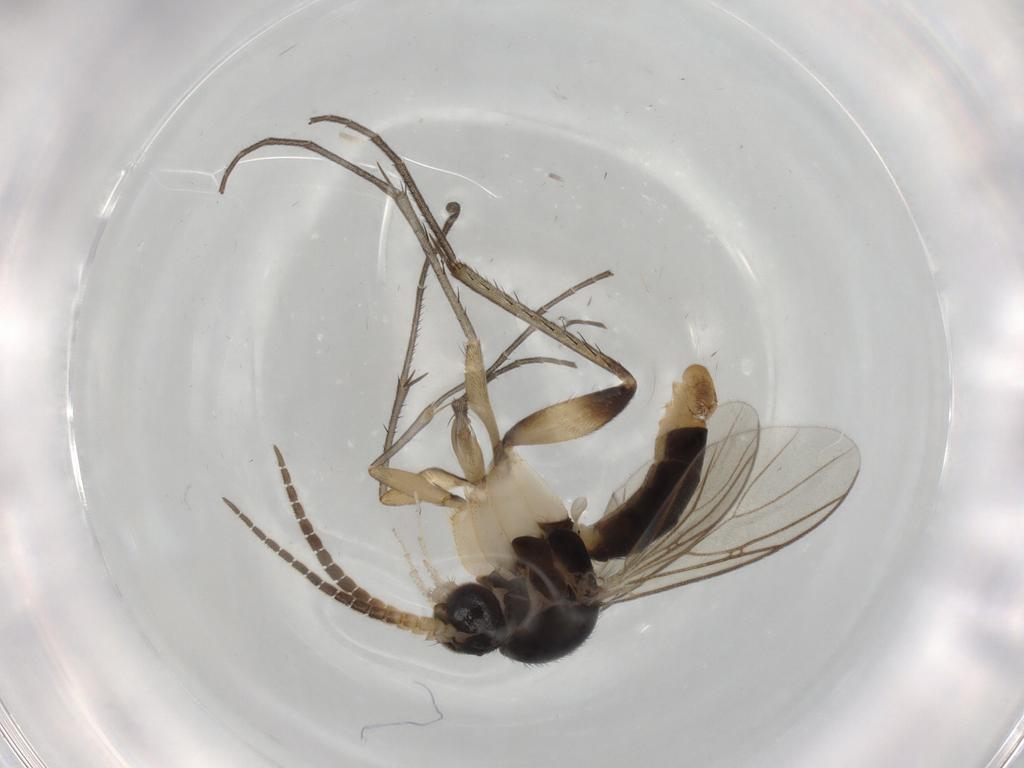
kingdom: Animalia
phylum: Arthropoda
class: Insecta
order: Diptera
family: Mycetophilidae
